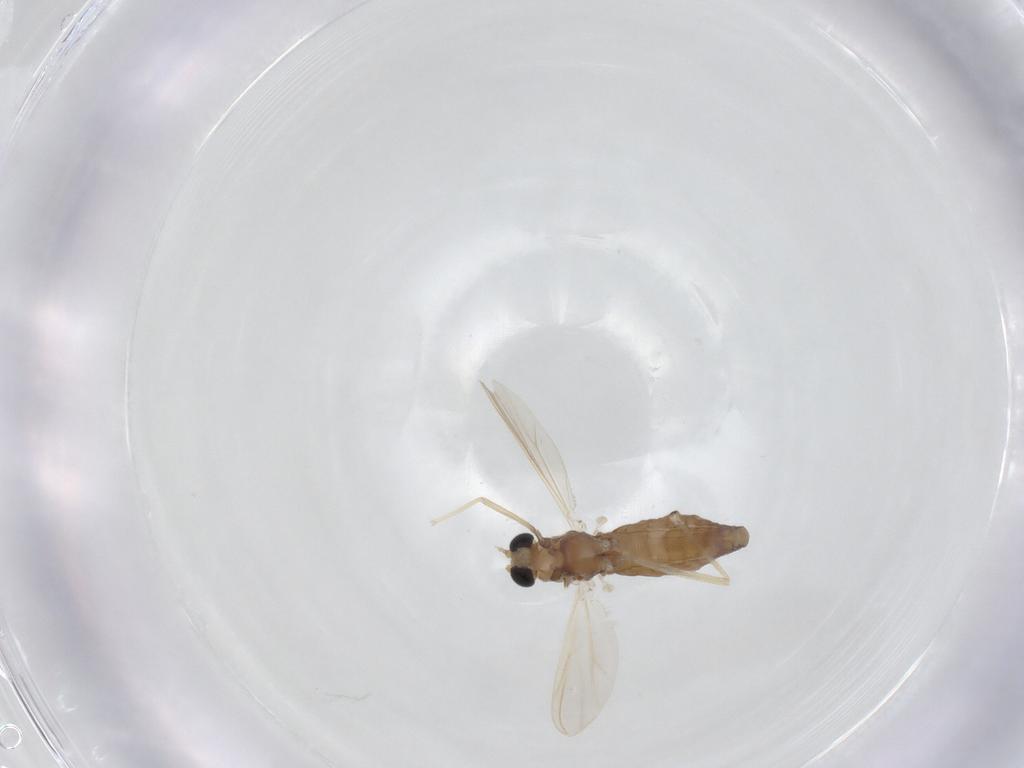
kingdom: Animalia
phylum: Arthropoda
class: Insecta
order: Diptera
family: Chironomidae
